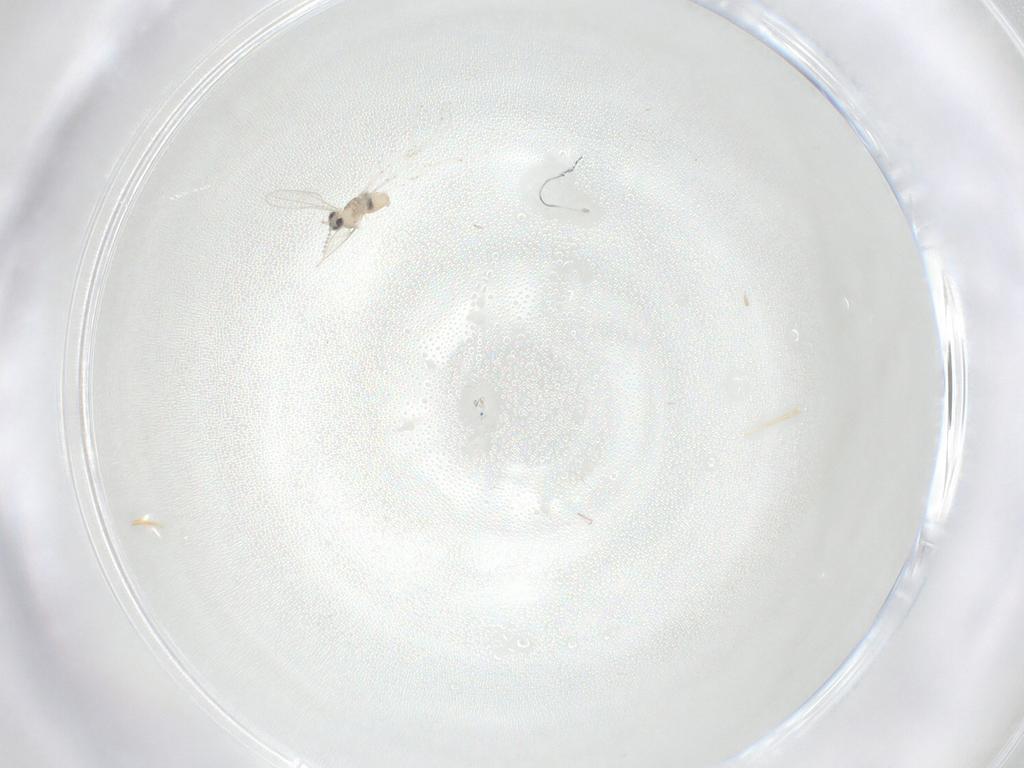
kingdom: Animalia
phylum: Arthropoda
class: Insecta
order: Diptera
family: Cecidomyiidae
